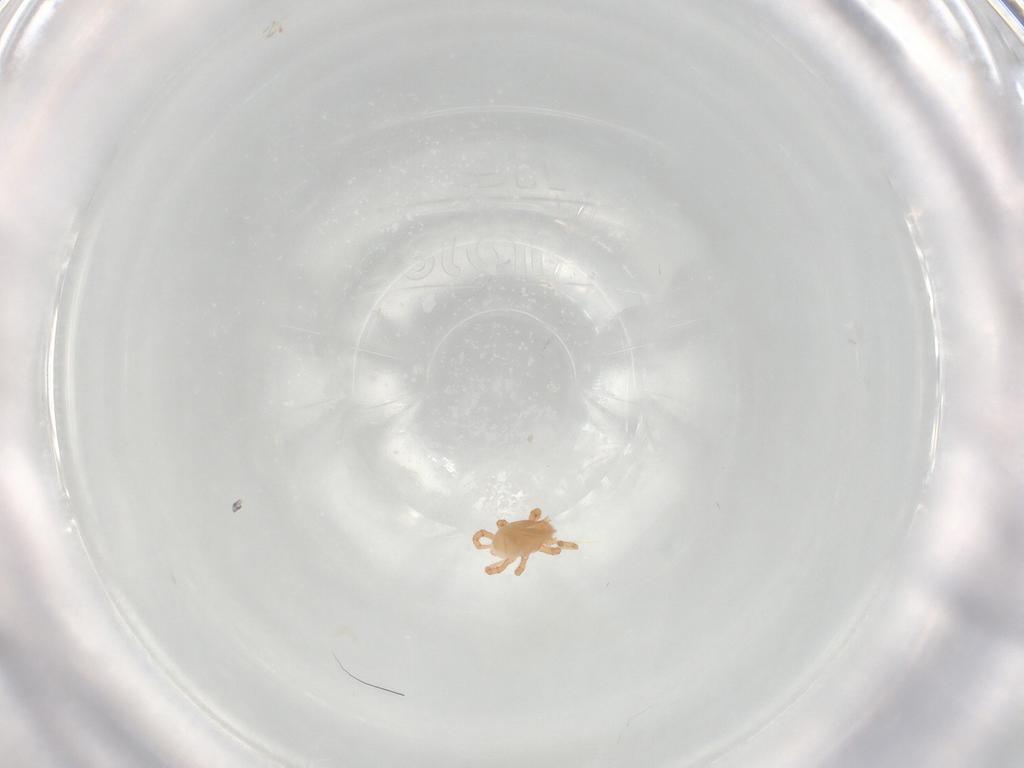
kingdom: Animalia
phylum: Arthropoda
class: Arachnida
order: Mesostigmata
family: Parasitidae
